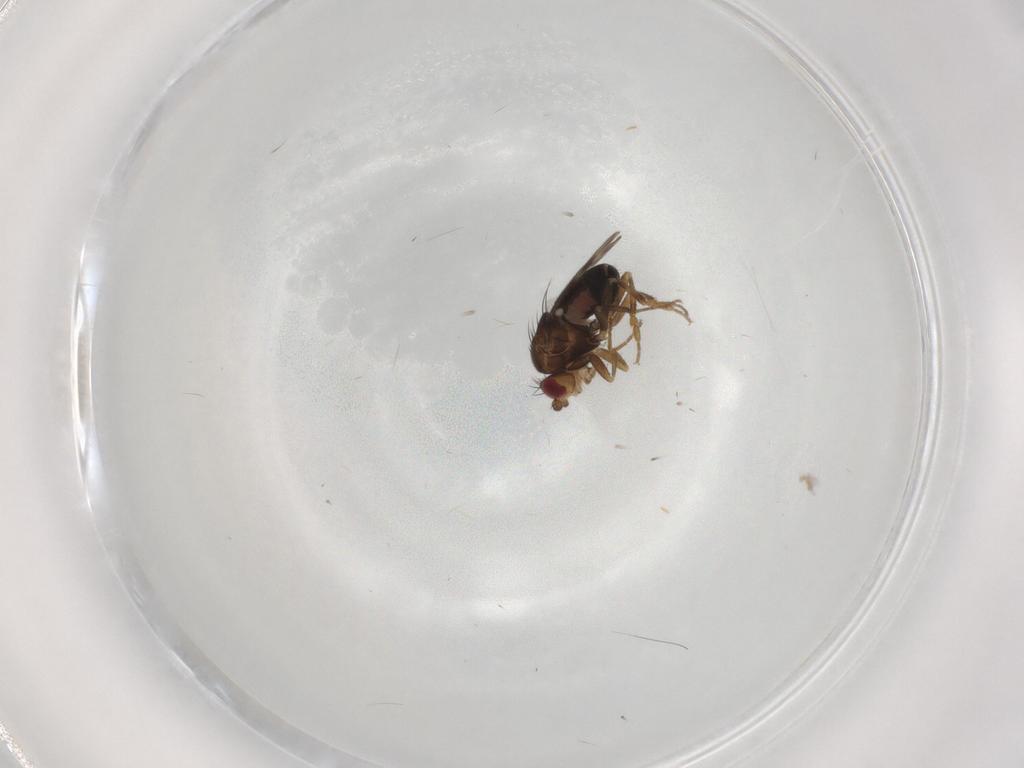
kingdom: Animalia
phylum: Arthropoda
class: Insecta
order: Diptera
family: Sphaeroceridae
